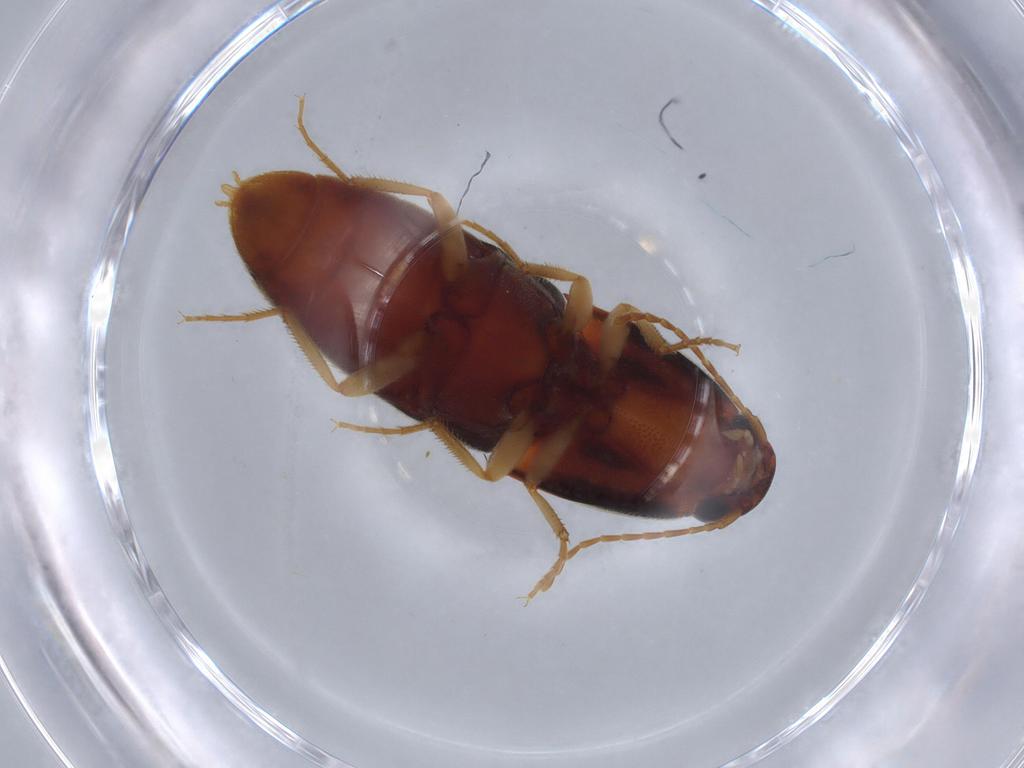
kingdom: Animalia
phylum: Arthropoda
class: Insecta
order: Coleoptera
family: Elateridae
